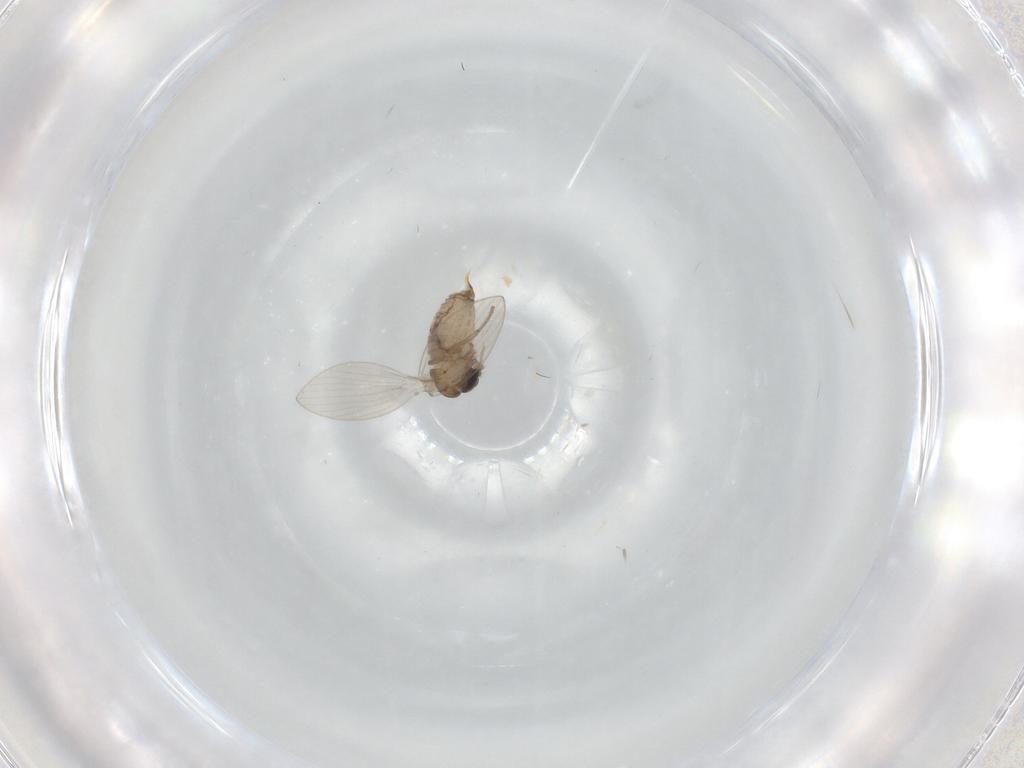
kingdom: Animalia
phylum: Arthropoda
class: Insecta
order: Diptera
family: Psychodidae
